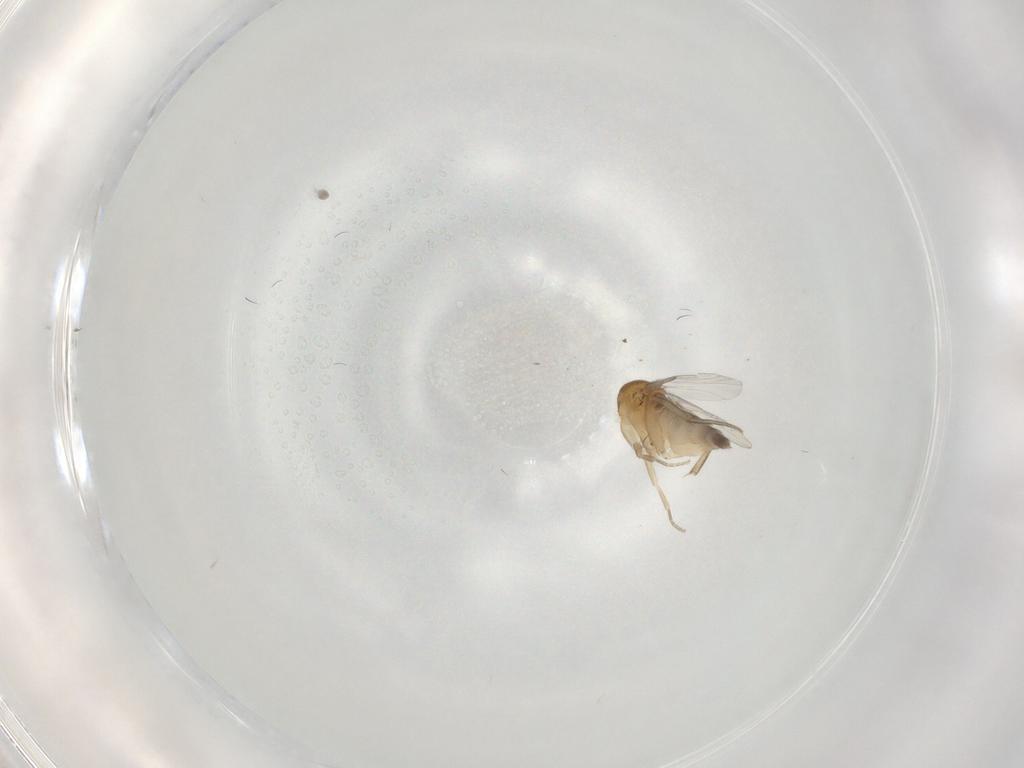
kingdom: Animalia
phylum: Arthropoda
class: Insecta
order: Diptera
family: Phoridae
